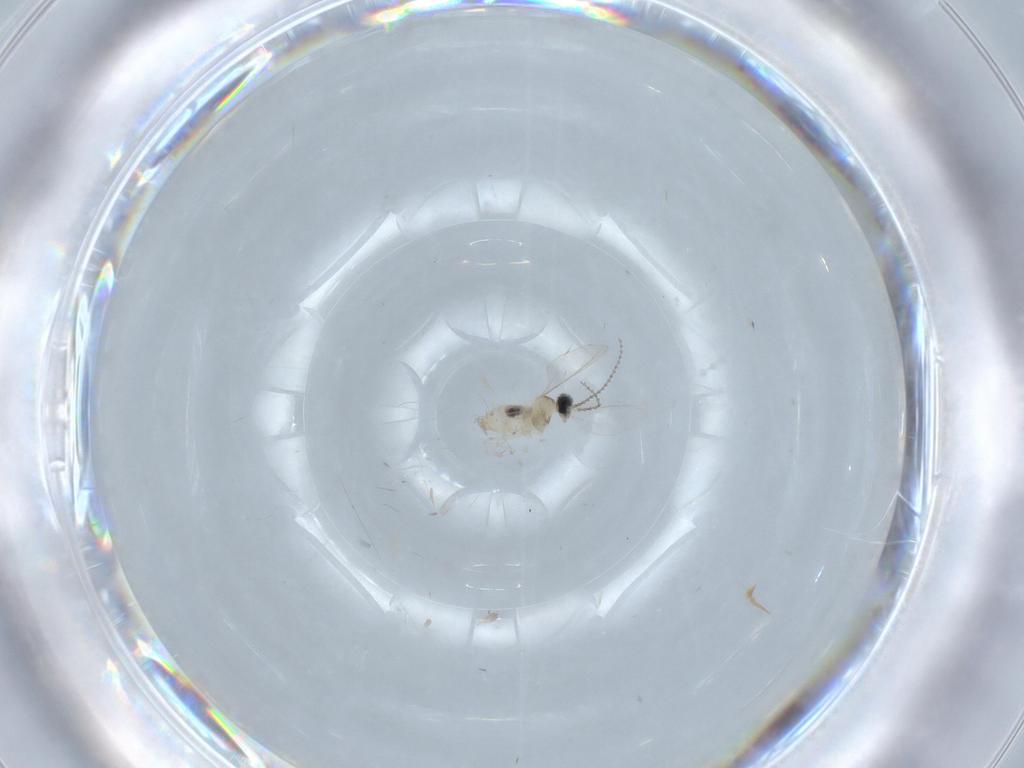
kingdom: Animalia
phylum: Arthropoda
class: Insecta
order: Diptera
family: Cecidomyiidae
